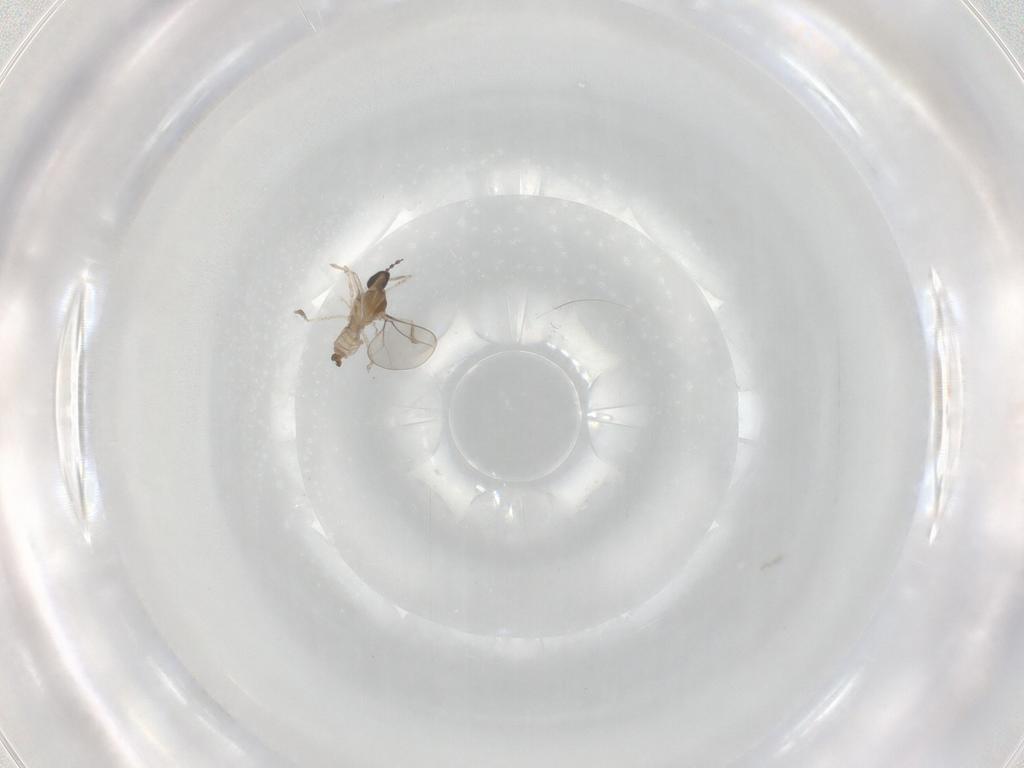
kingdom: Animalia
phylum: Arthropoda
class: Insecta
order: Diptera
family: Cecidomyiidae
